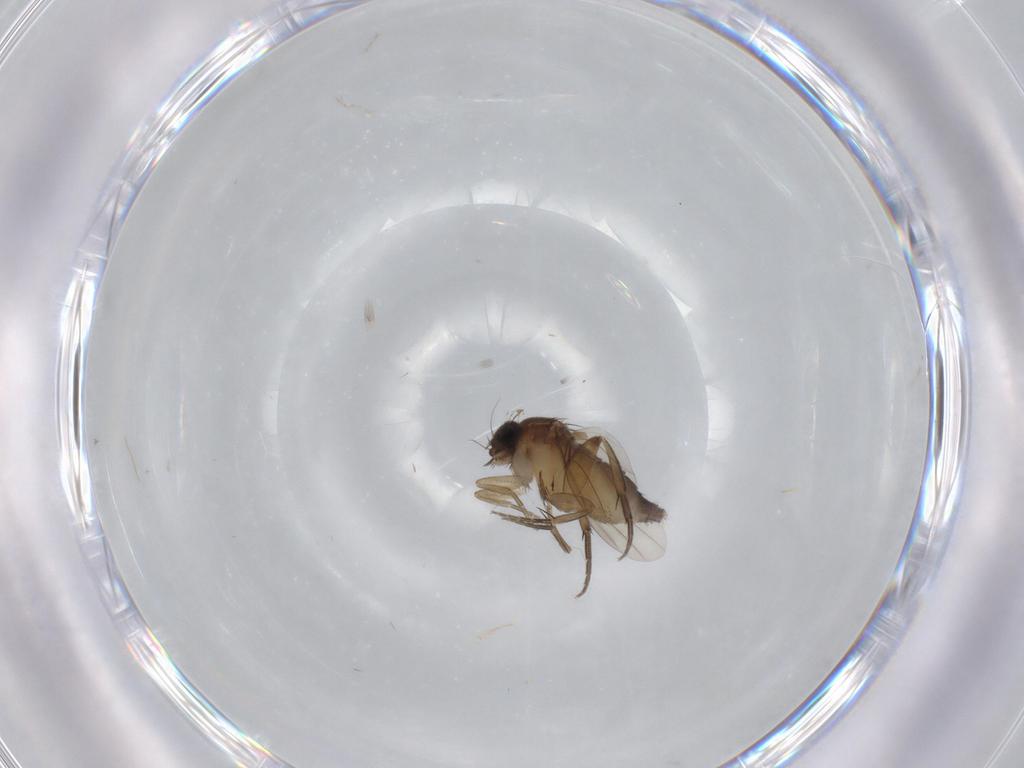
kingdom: Animalia
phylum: Arthropoda
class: Insecta
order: Diptera
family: Phoridae
